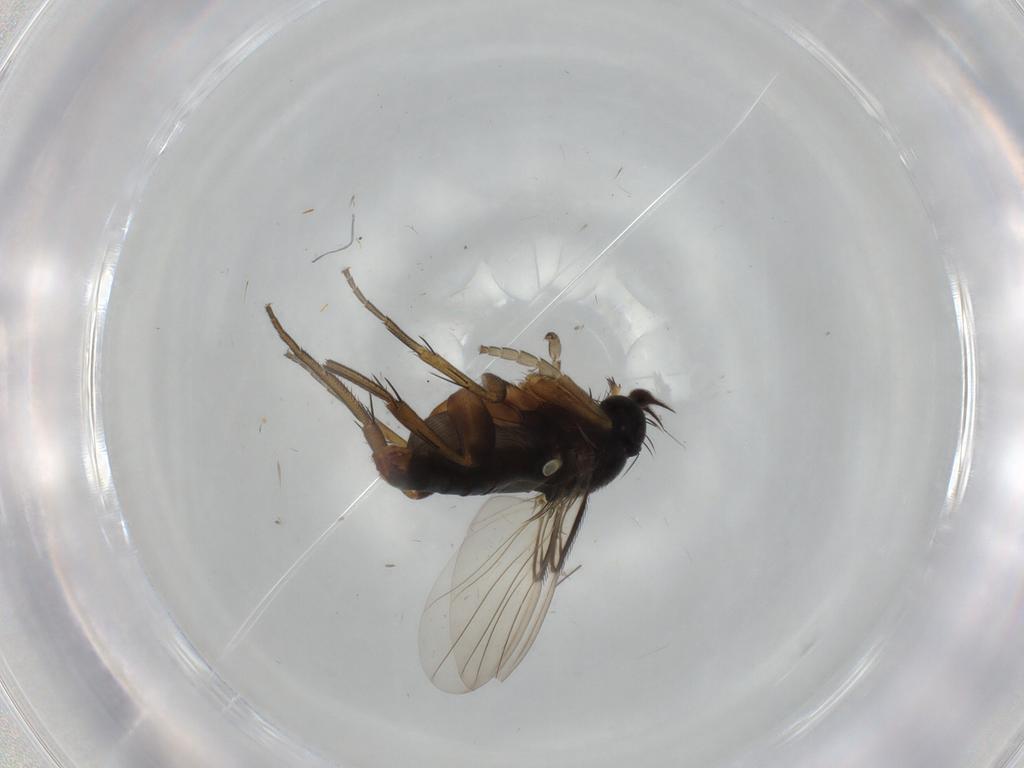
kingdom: Animalia
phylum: Arthropoda
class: Insecta
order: Diptera
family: Phoridae
